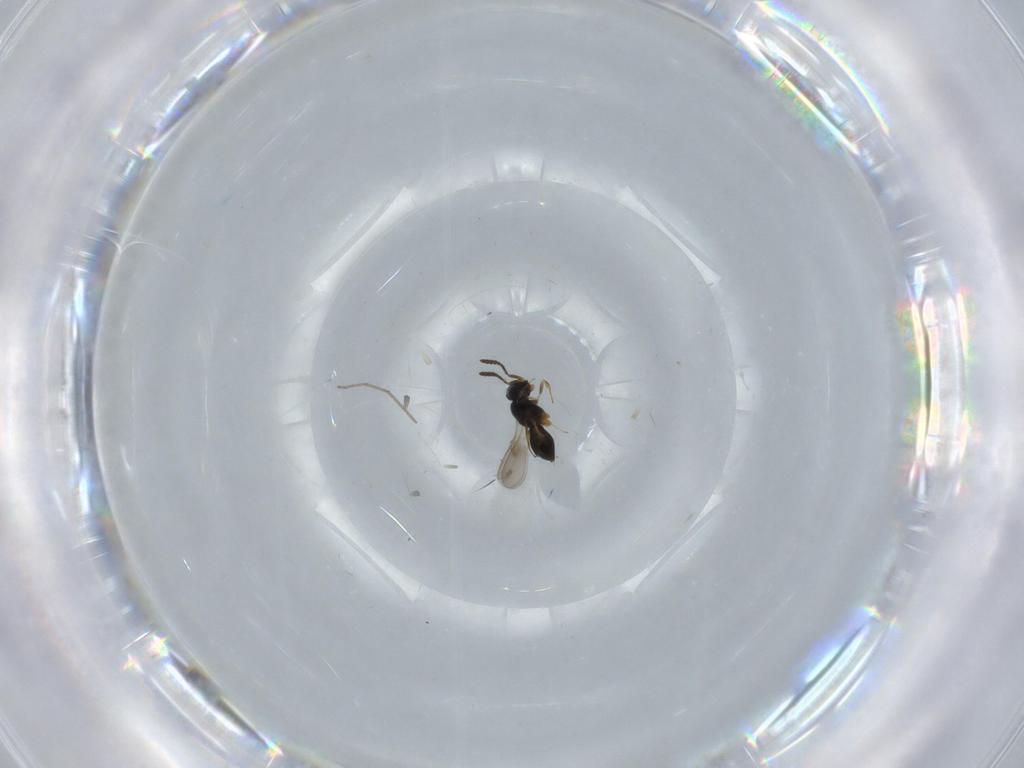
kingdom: Animalia
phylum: Arthropoda
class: Insecta
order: Hymenoptera
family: Scelionidae
